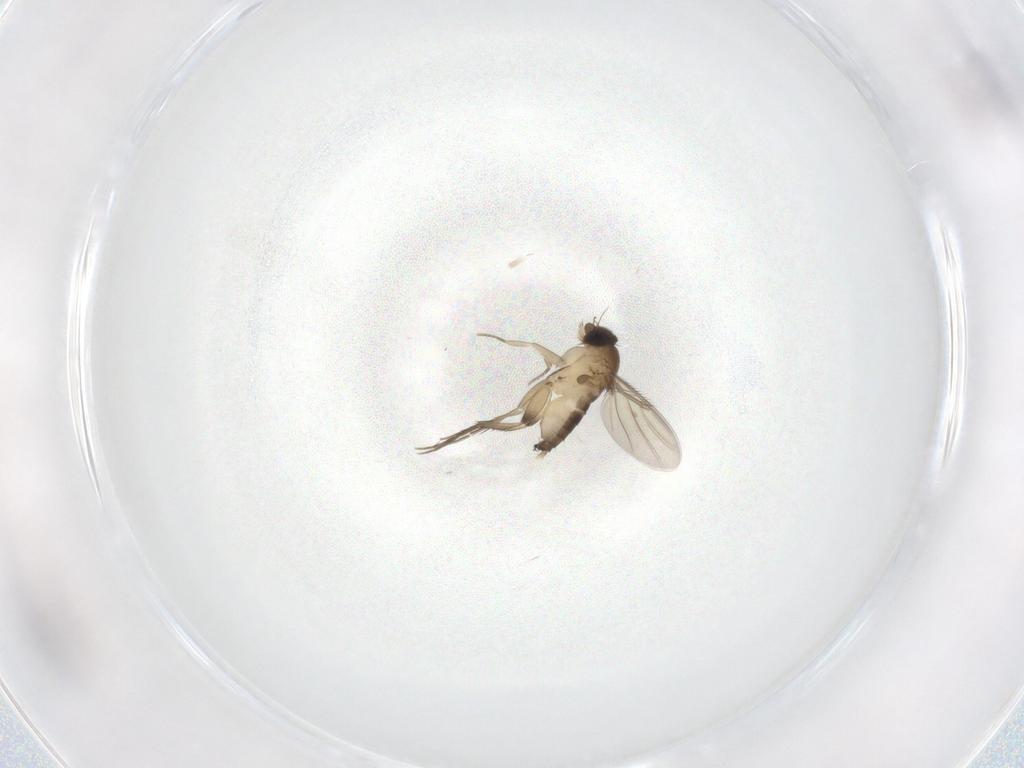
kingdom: Animalia
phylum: Arthropoda
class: Insecta
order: Diptera
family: Phoridae
